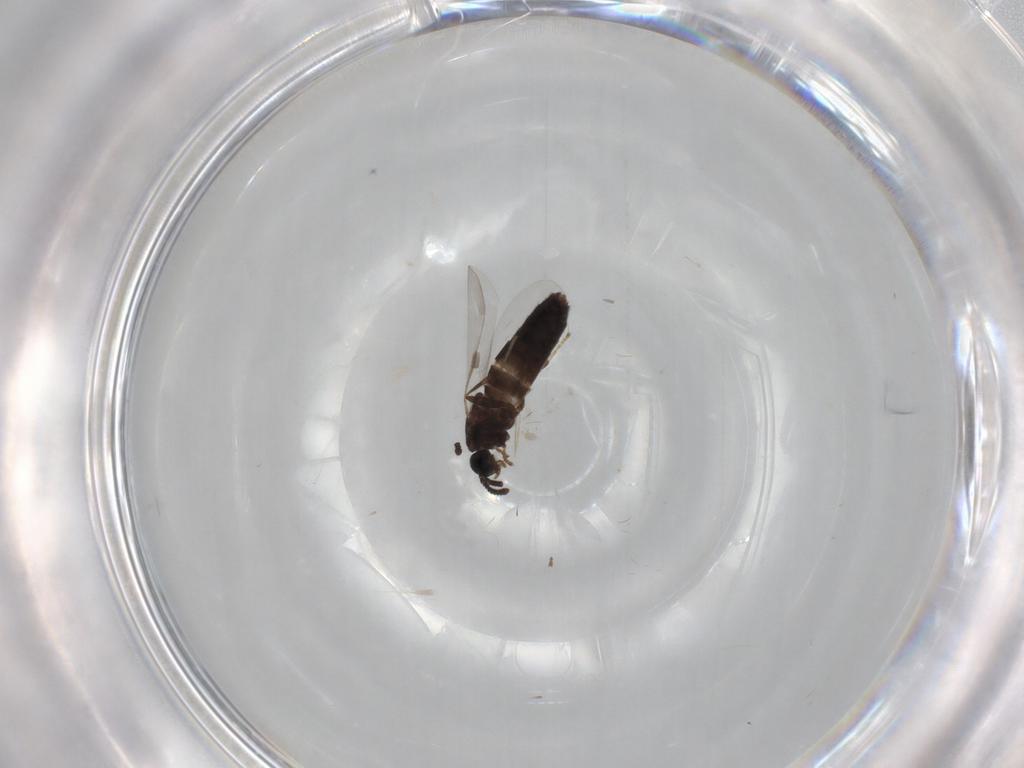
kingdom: Animalia
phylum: Arthropoda
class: Insecta
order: Diptera
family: Scatopsidae
